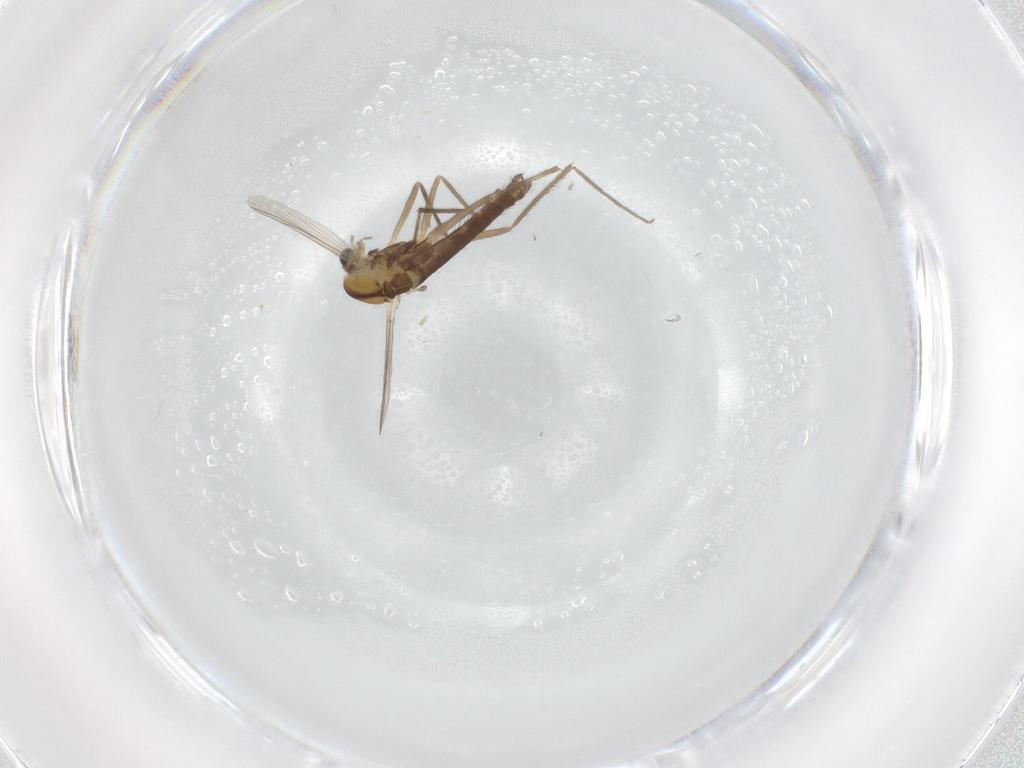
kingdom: Animalia
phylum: Arthropoda
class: Insecta
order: Diptera
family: Chironomidae
